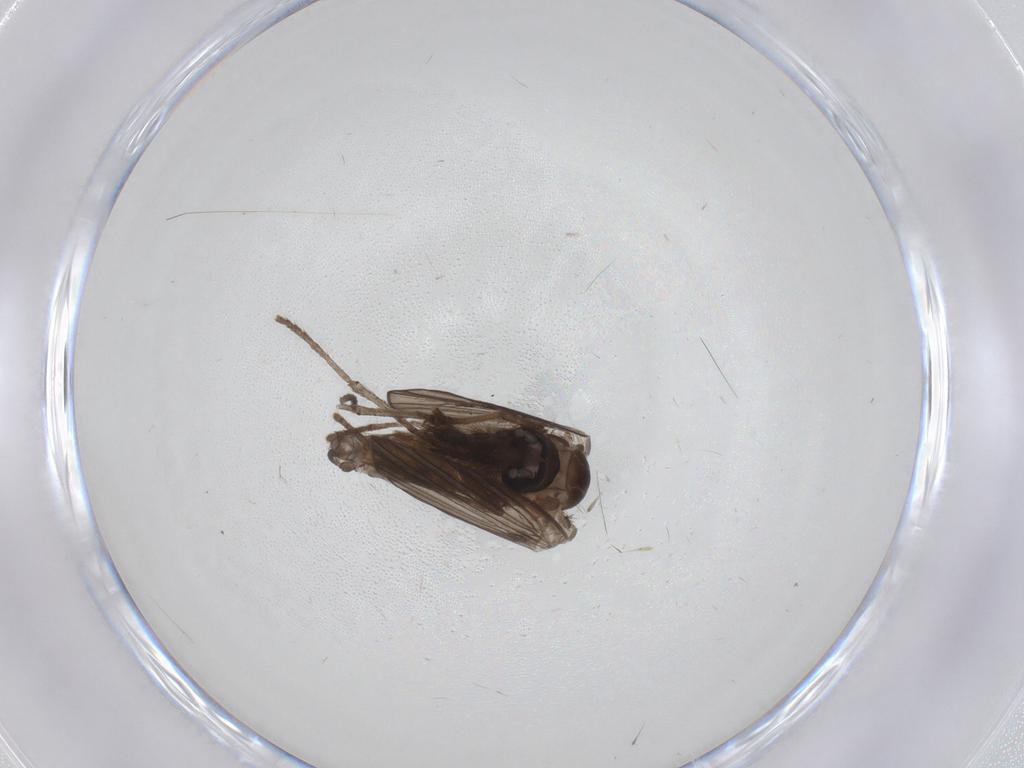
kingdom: Animalia
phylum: Arthropoda
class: Insecta
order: Diptera
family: Psychodidae
